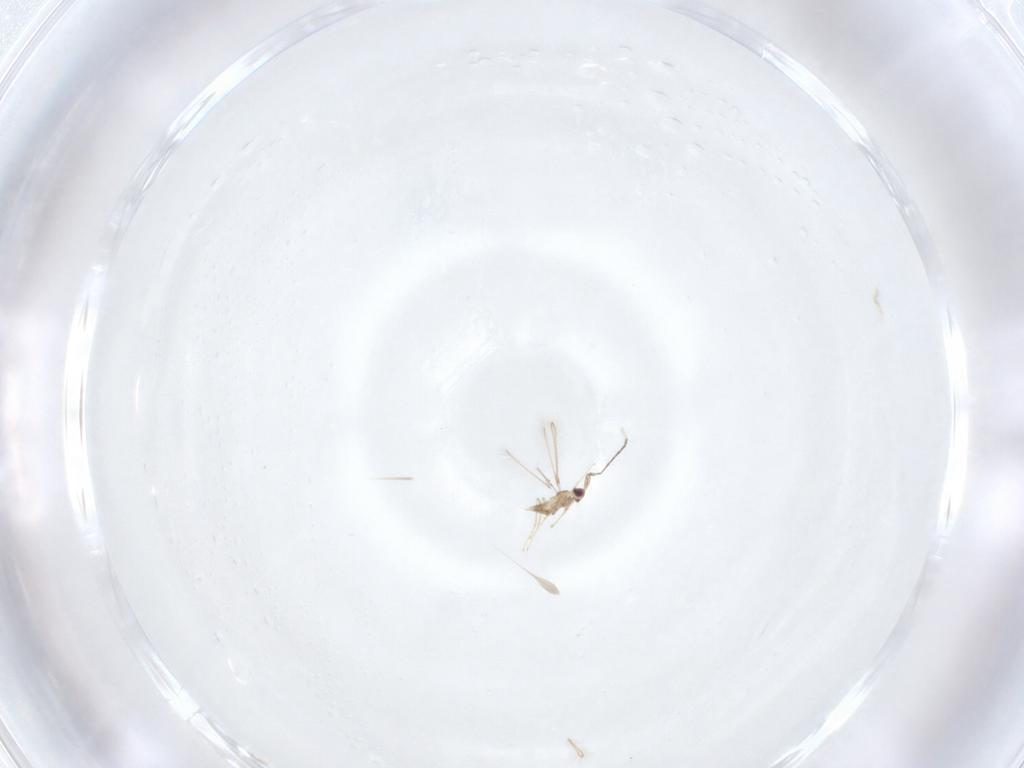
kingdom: Animalia
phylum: Arthropoda
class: Insecta
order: Hymenoptera
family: Mymaridae
